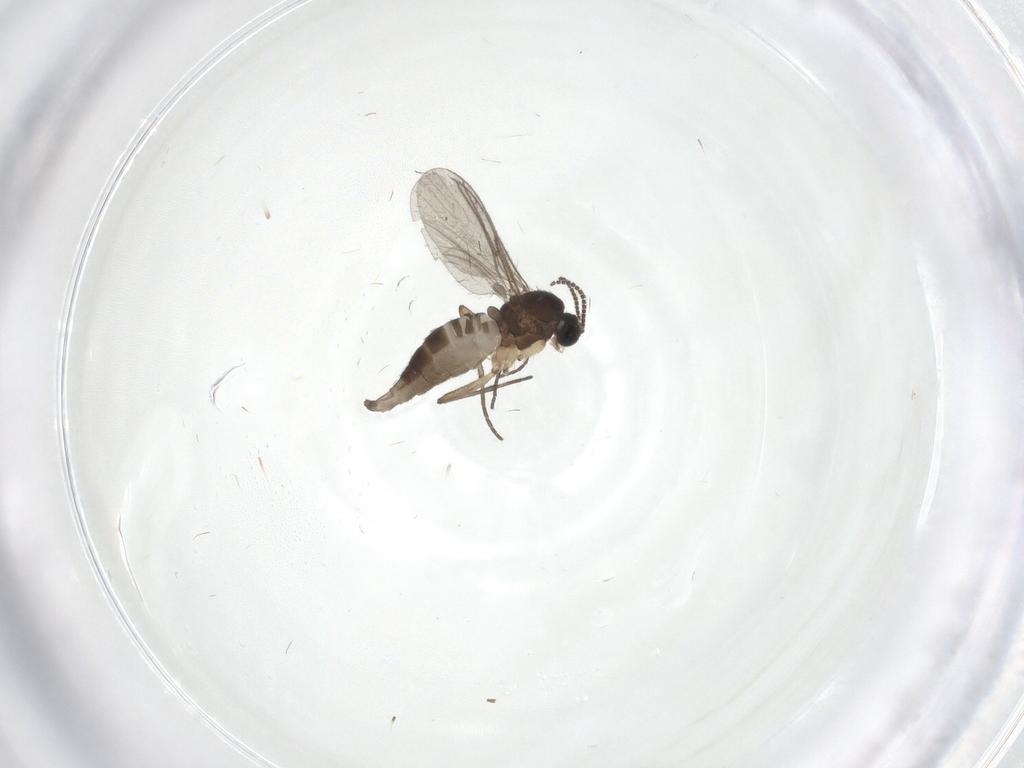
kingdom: Animalia
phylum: Arthropoda
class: Insecta
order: Diptera
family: Sciaridae
